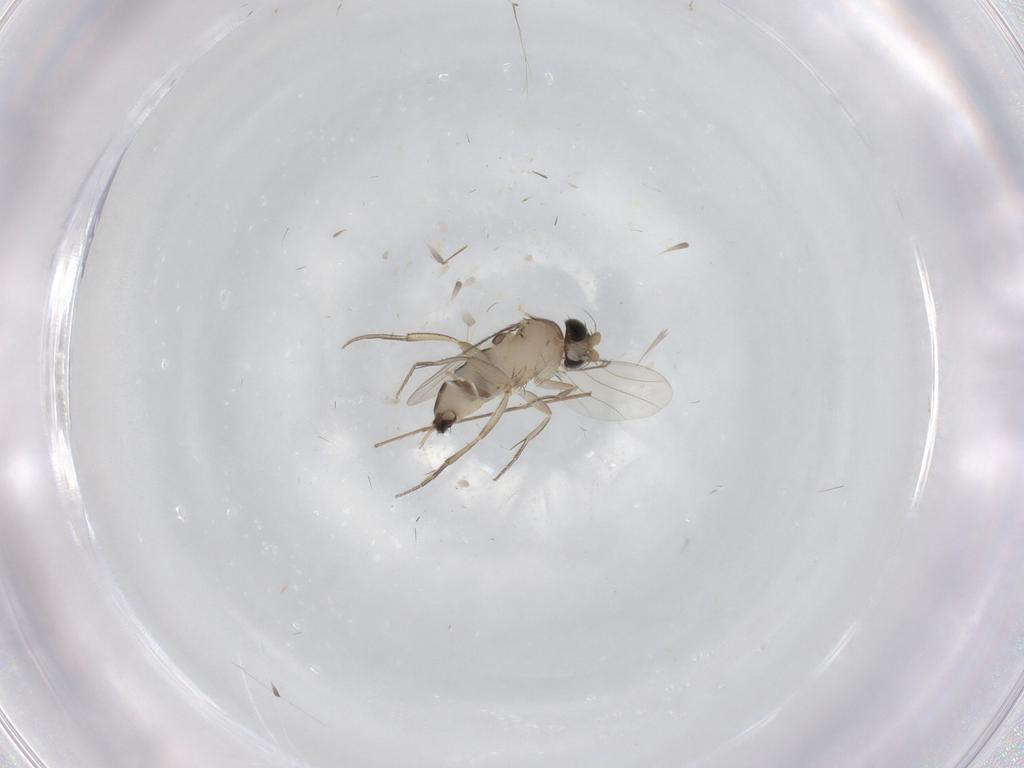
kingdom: Animalia
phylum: Arthropoda
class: Insecta
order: Diptera
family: Phoridae
